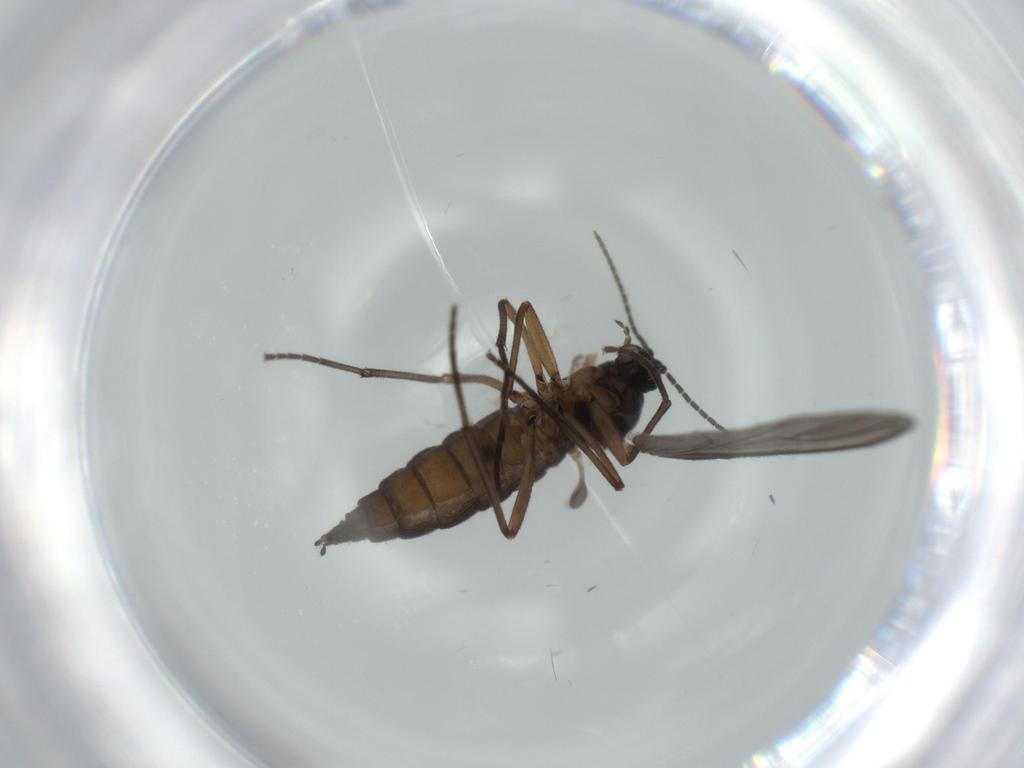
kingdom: Animalia
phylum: Arthropoda
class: Insecta
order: Diptera
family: Sciaridae
